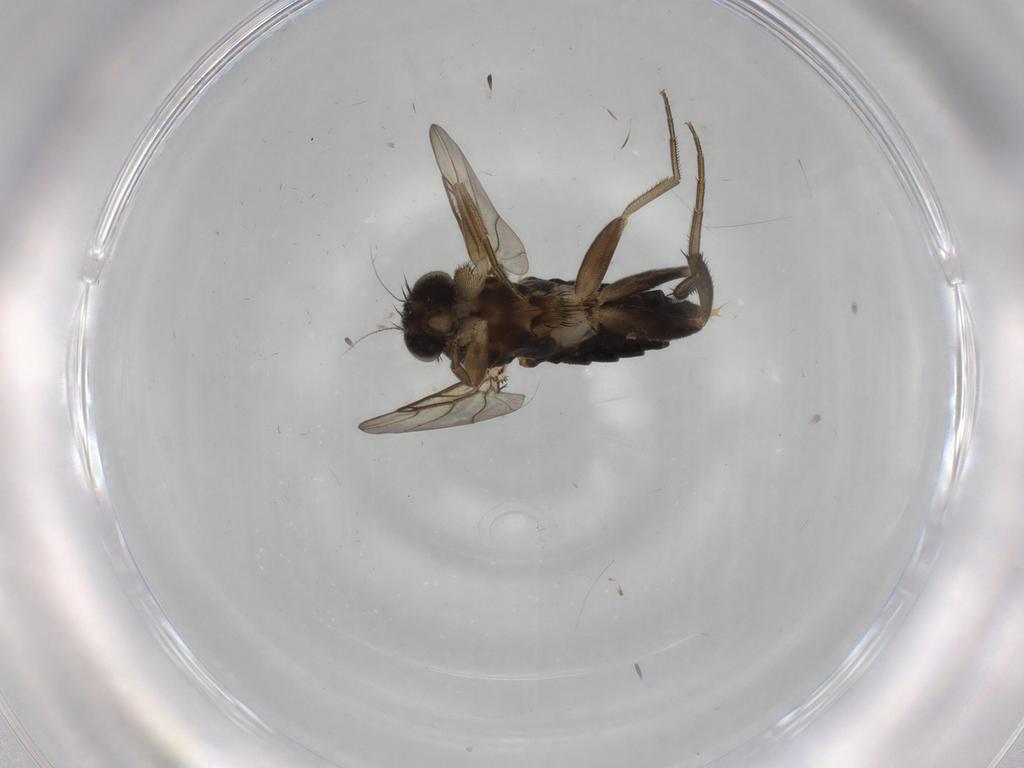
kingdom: Animalia
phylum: Arthropoda
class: Insecta
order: Diptera
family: Phoridae
